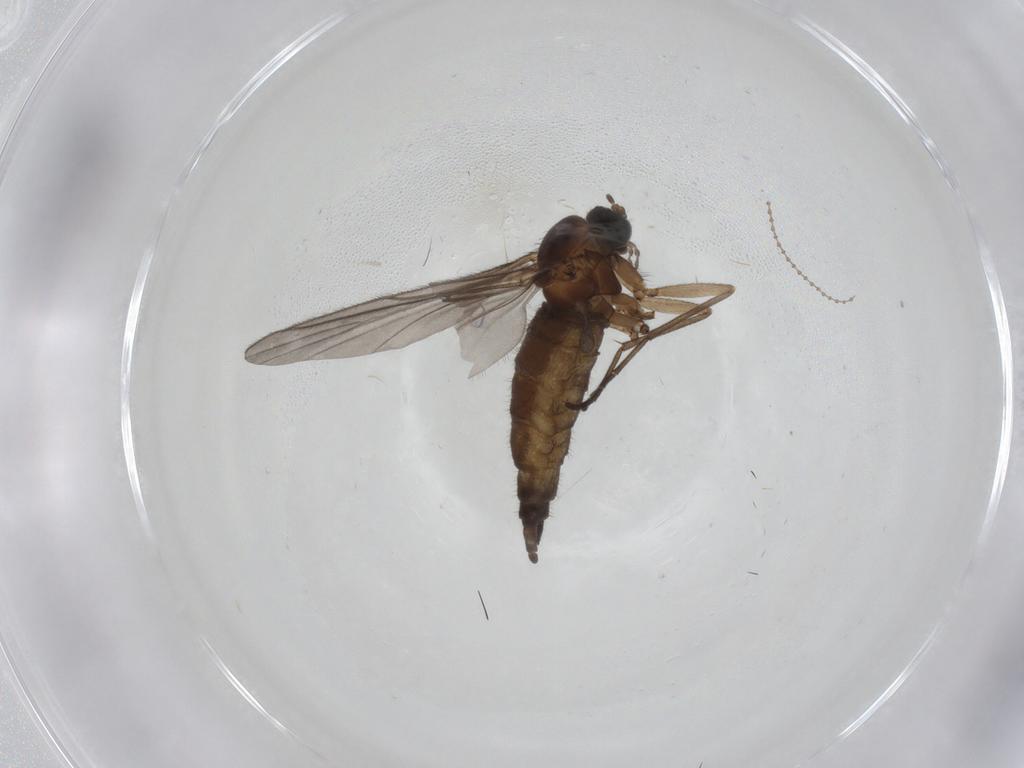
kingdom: Animalia
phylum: Arthropoda
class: Insecta
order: Diptera
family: Sciaridae
